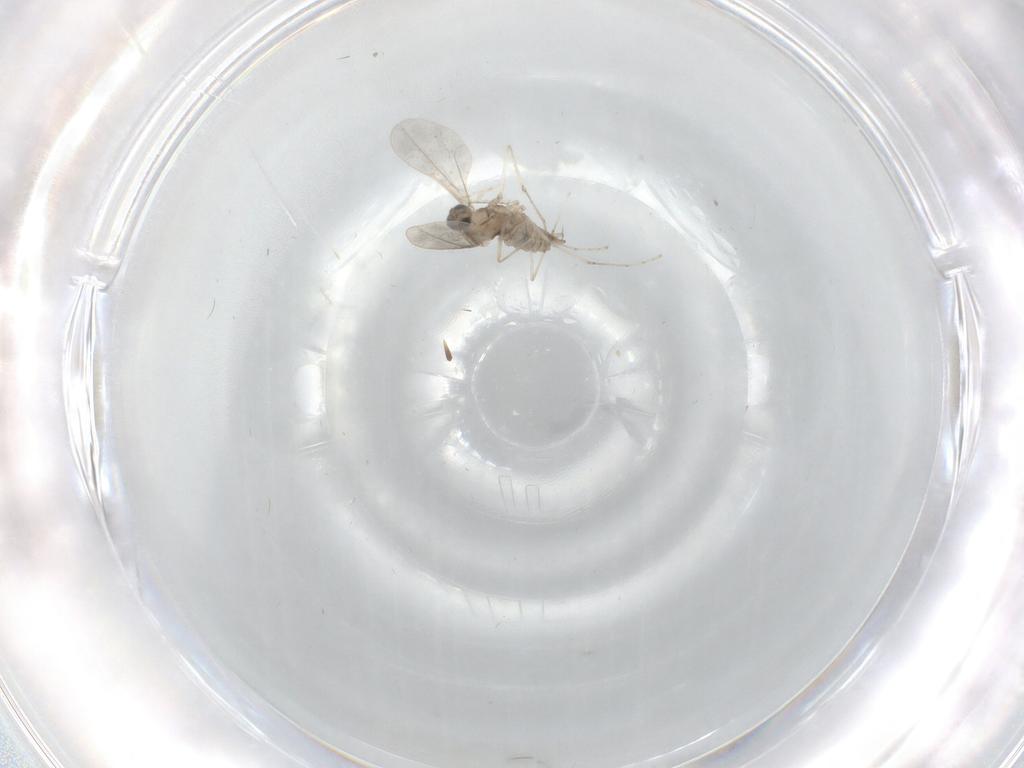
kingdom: Animalia
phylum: Arthropoda
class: Insecta
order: Diptera
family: Cecidomyiidae
